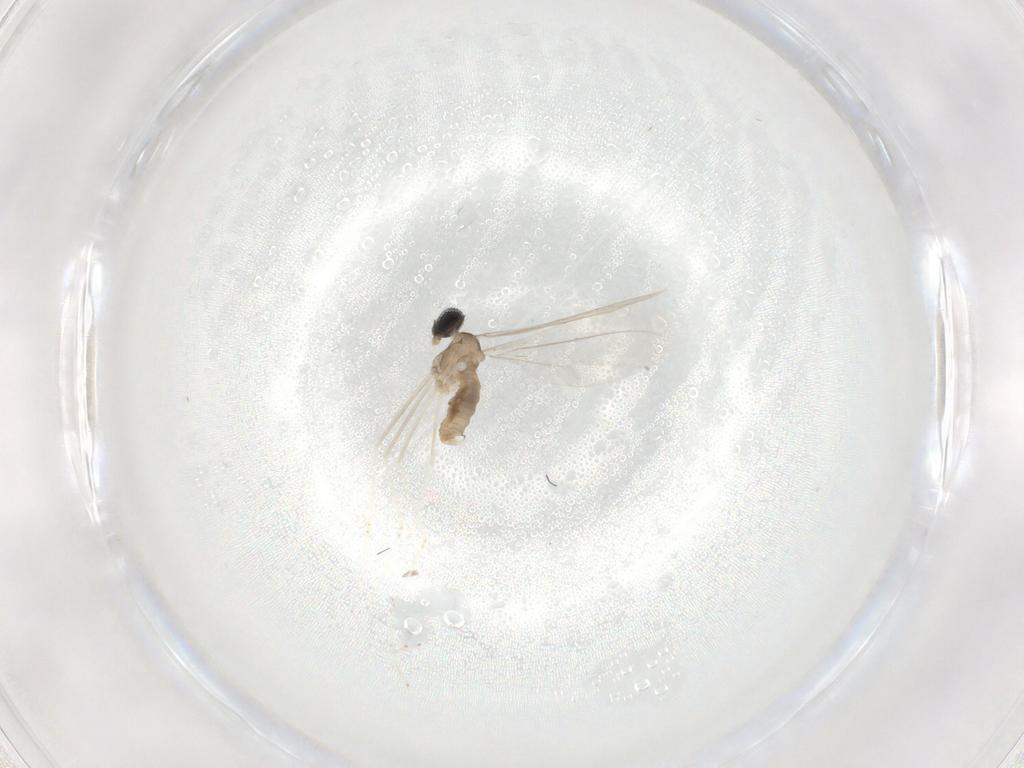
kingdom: Animalia
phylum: Arthropoda
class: Insecta
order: Diptera
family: Cecidomyiidae
